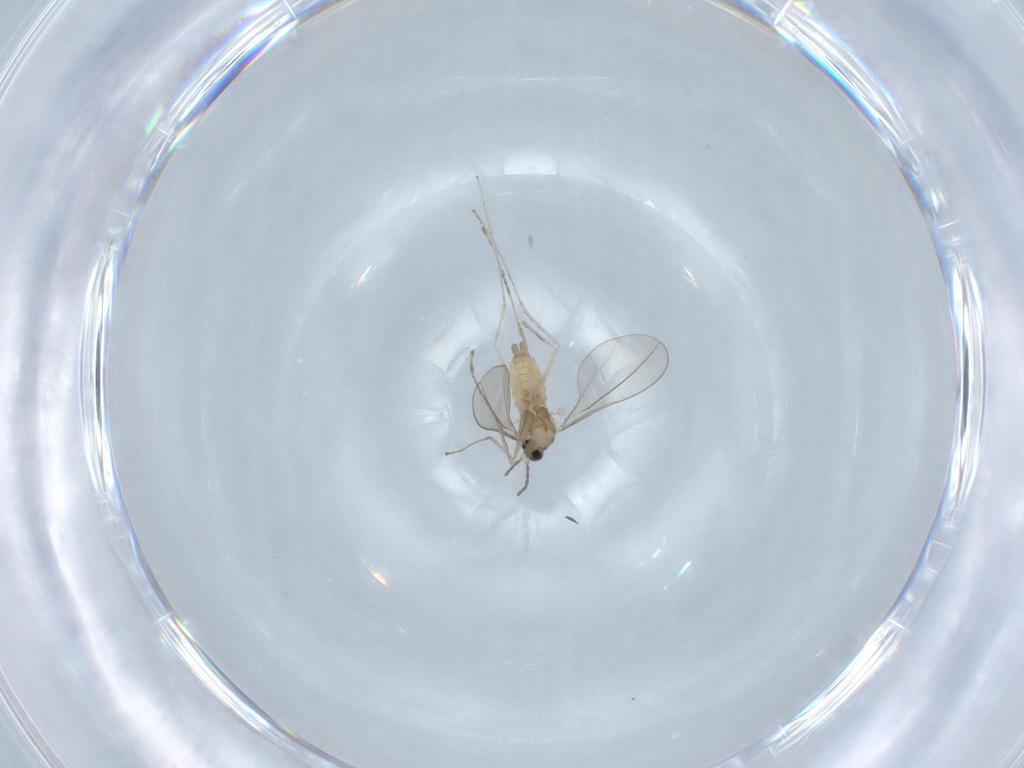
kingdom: Animalia
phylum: Arthropoda
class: Insecta
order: Diptera
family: Cecidomyiidae
